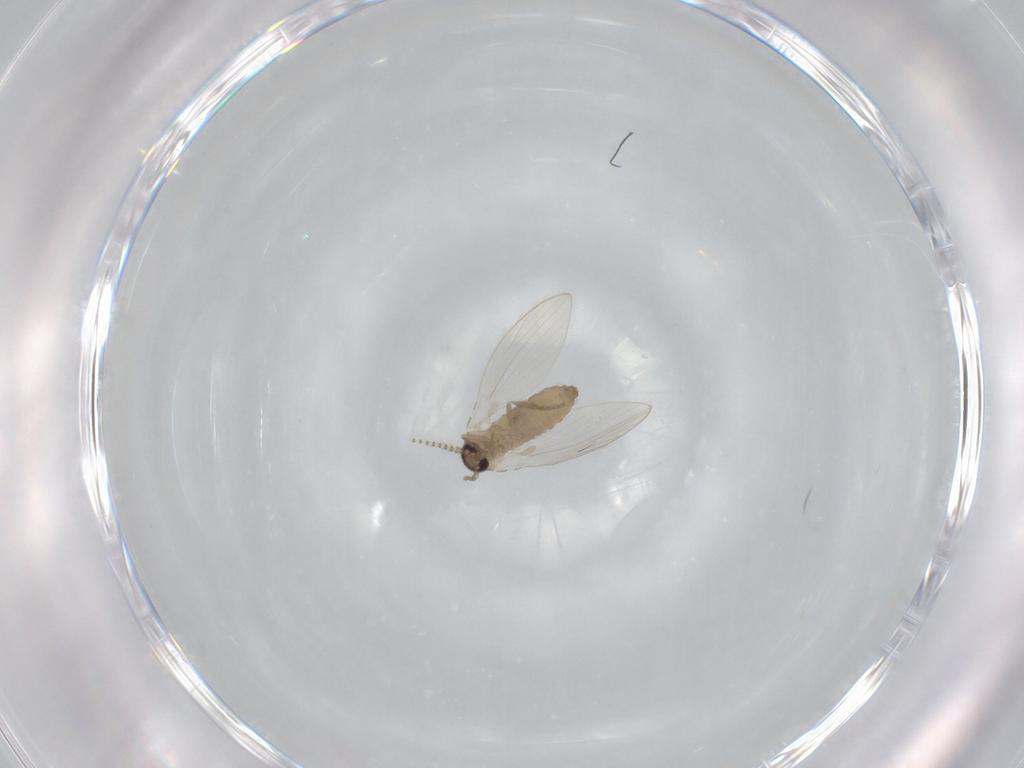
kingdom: Animalia
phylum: Arthropoda
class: Insecta
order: Diptera
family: Psychodidae
